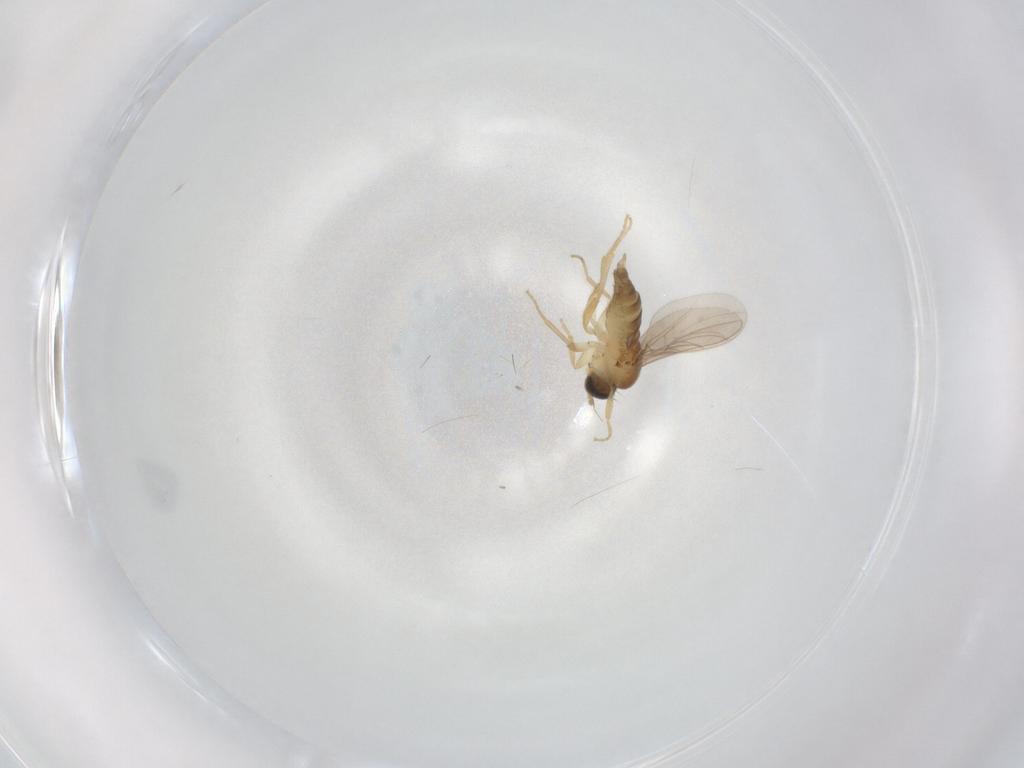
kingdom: Animalia
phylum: Arthropoda
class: Insecta
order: Diptera
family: Hybotidae
